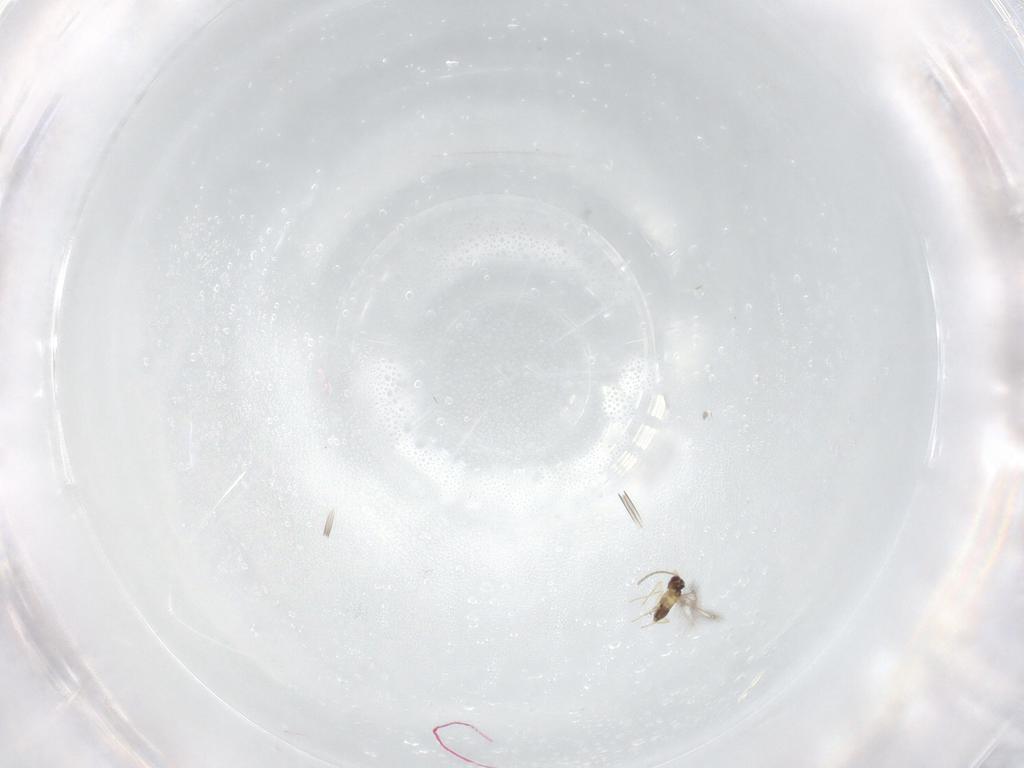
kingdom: Animalia
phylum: Arthropoda
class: Insecta
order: Hymenoptera
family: Scelionidae
